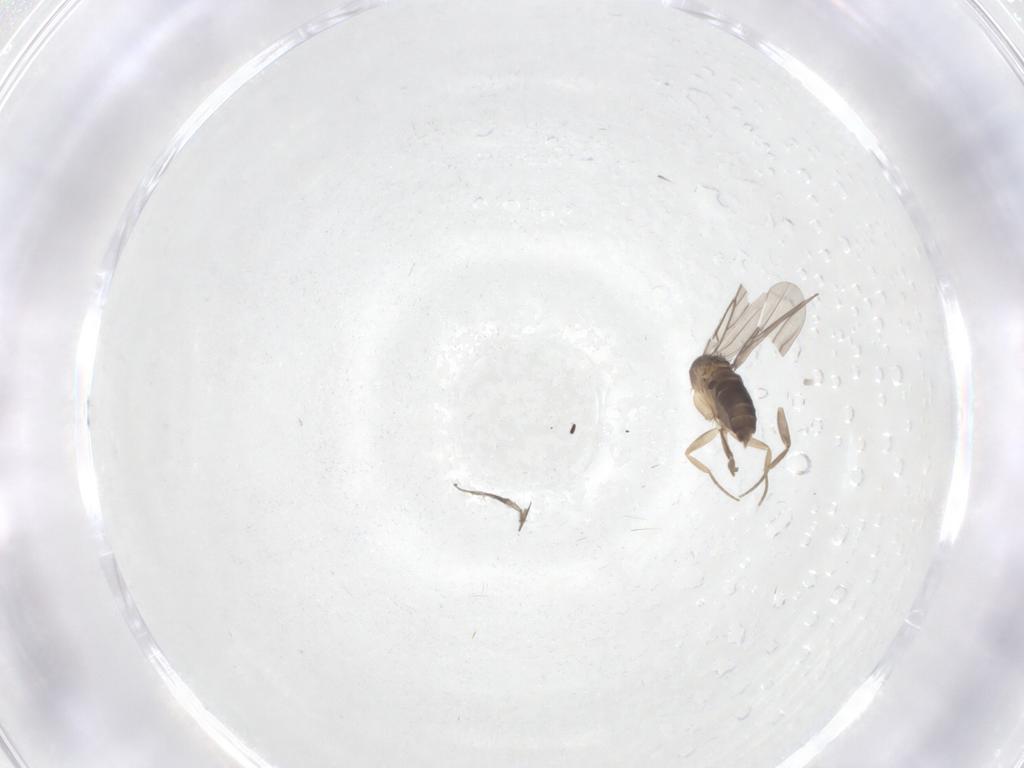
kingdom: Animalia
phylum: Arthropoda
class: Insecta
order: Diptera
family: Phoridae
